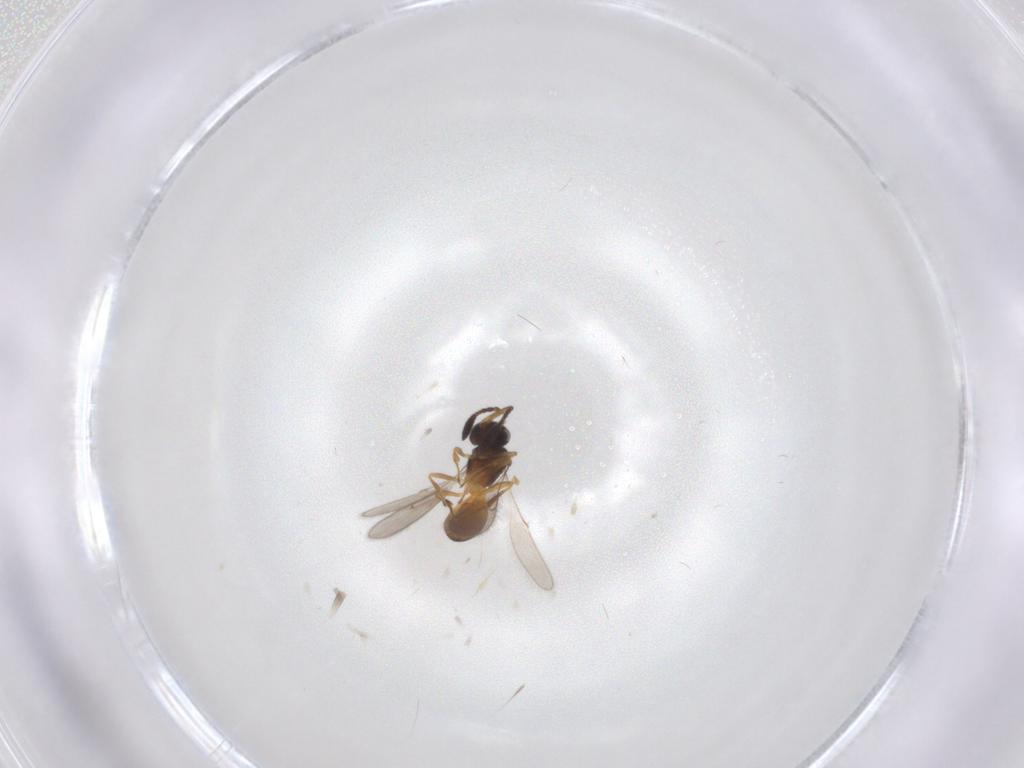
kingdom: Animalia
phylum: Arthropoda
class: Insecta
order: Hymenoptera
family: Scelionidae
